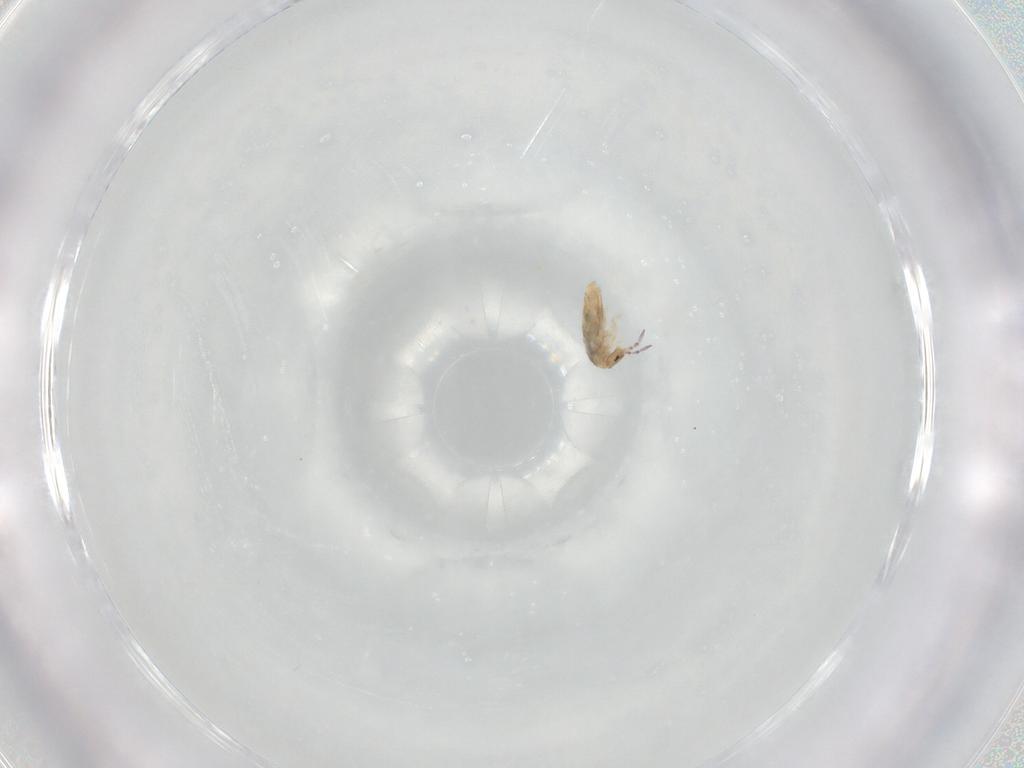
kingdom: Animalia
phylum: Arthropoda
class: Collembola
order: Entomobryomorpha
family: Entomobryidae
